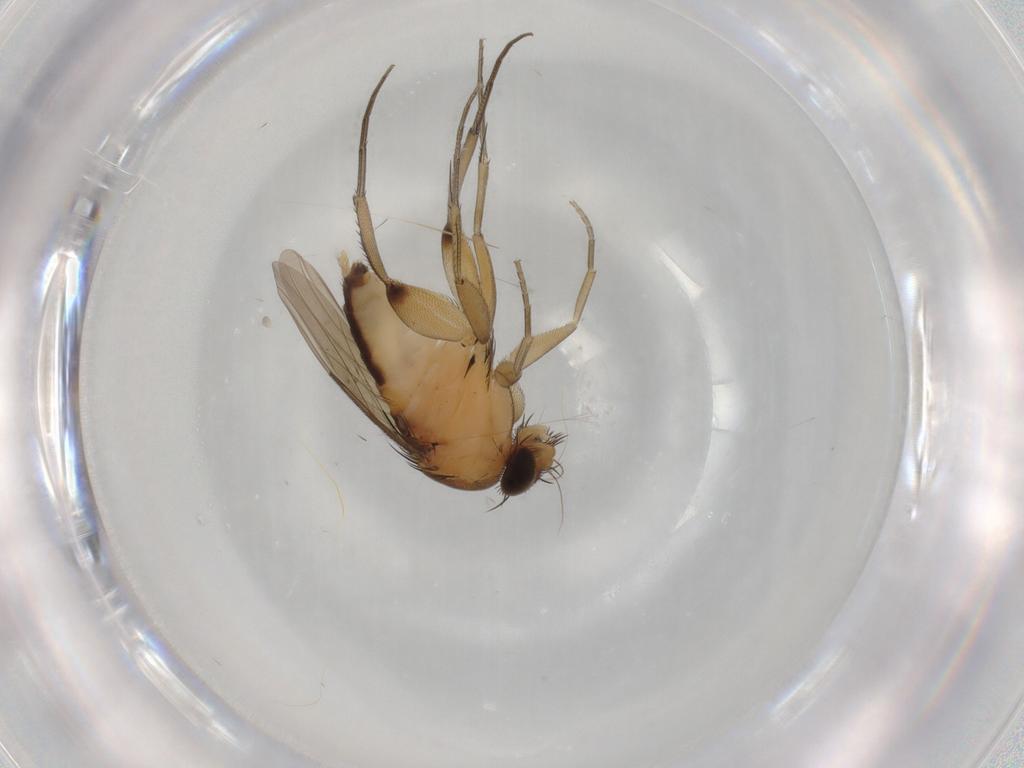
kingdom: Animalia
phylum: Arthropoda
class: Insecta
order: Diptera
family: Phoridae
